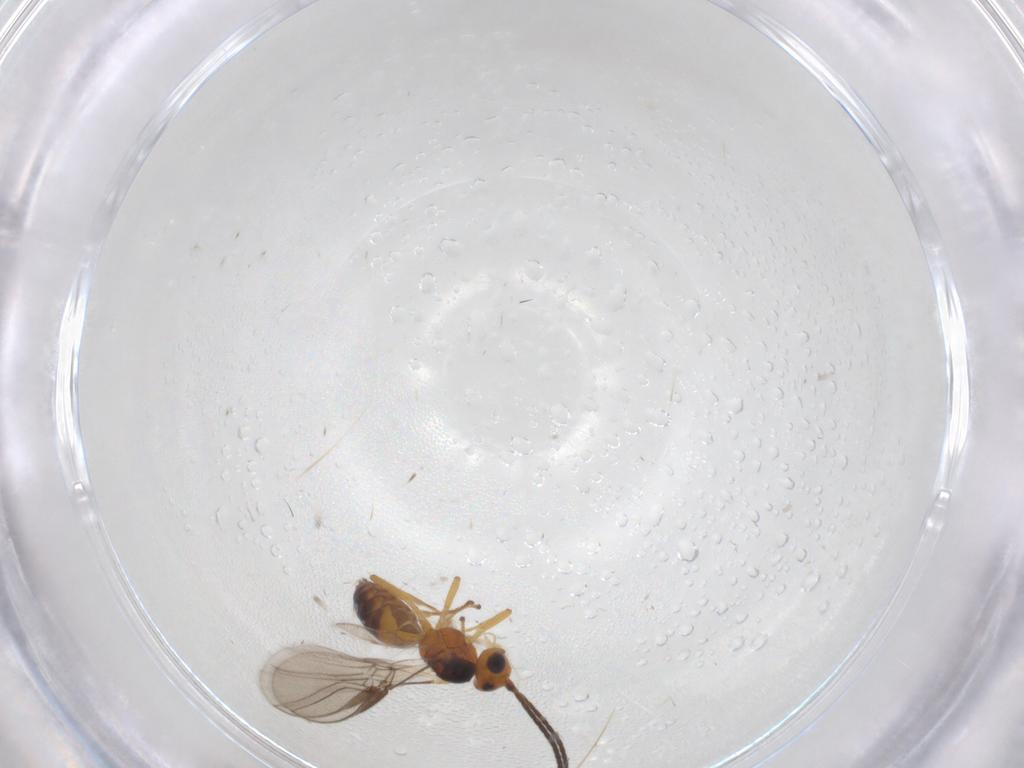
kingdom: Animalia
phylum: Arthropoda
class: Insecta
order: Hymenoptera
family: Braconidae
